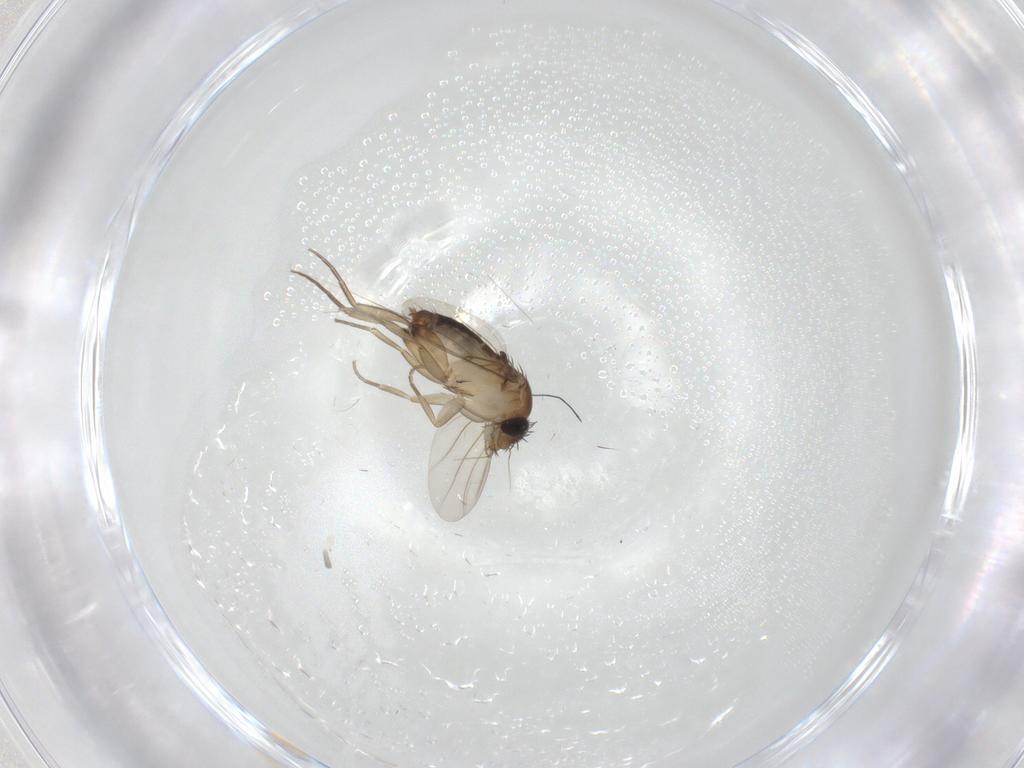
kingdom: Animalia
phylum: Arthropoda
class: Insecta
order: Diptera
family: Phoridae
